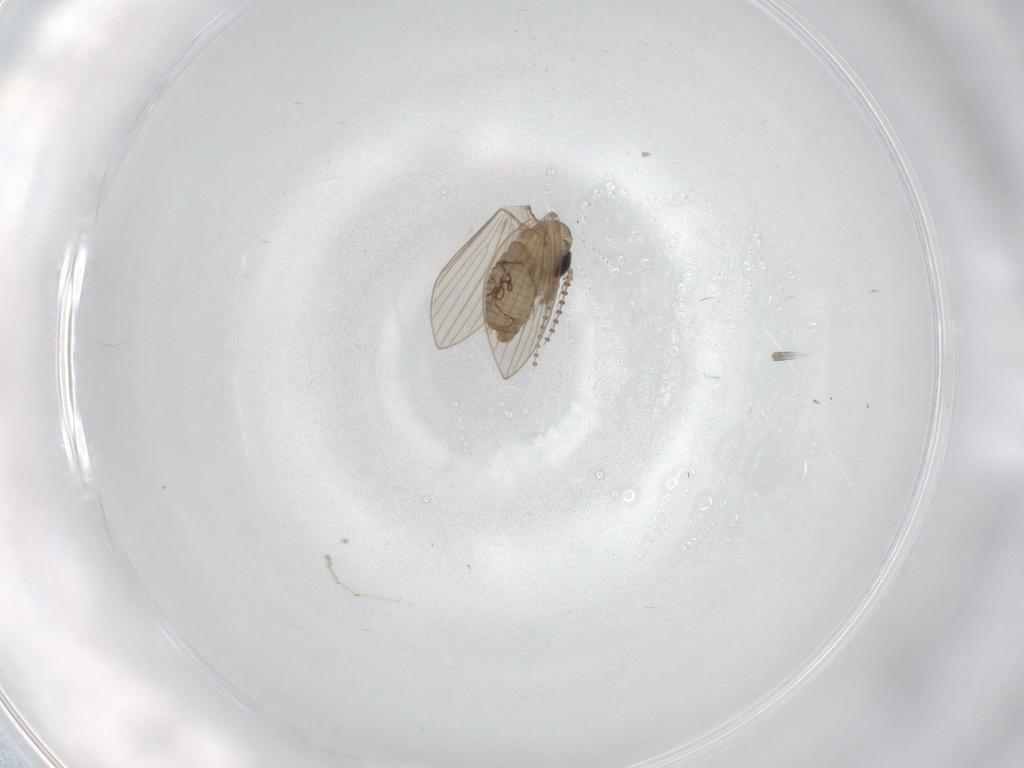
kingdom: Animalia
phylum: Arthropoda
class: Insecta
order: Diptera
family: Psychodidae
